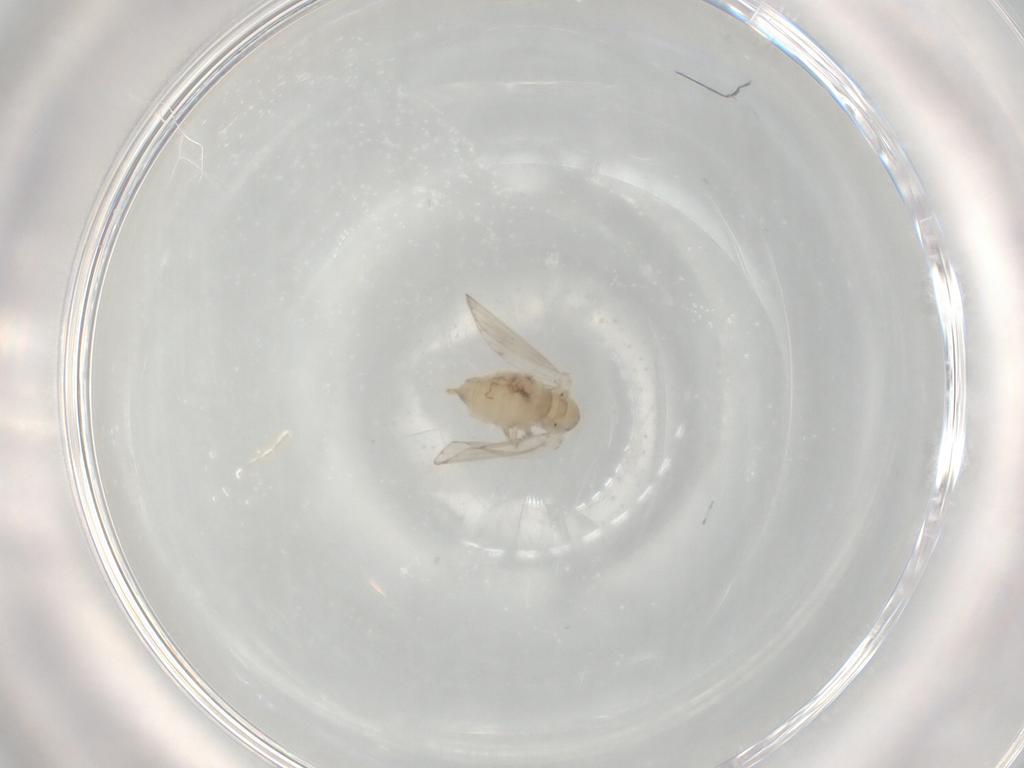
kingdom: Animalia
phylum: Arthropoda
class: Insecta
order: Diptera
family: Psychodidae
